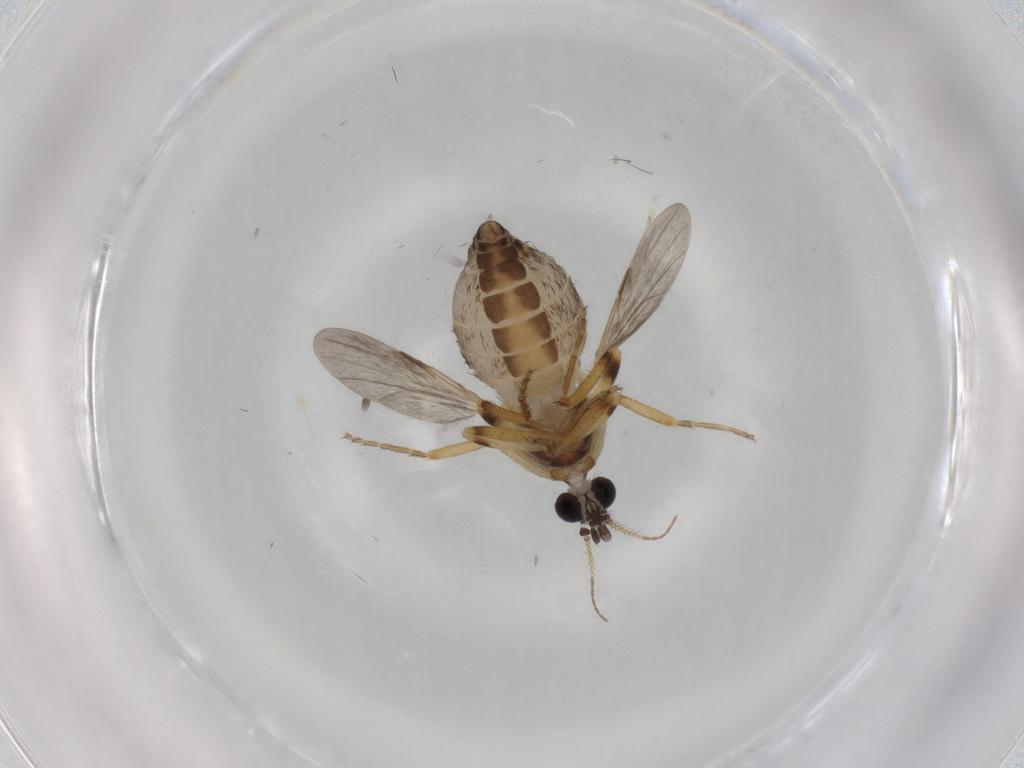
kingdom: Animalia
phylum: Arthropoda
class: Insecta
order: Diptera
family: Ceratopogonidae
